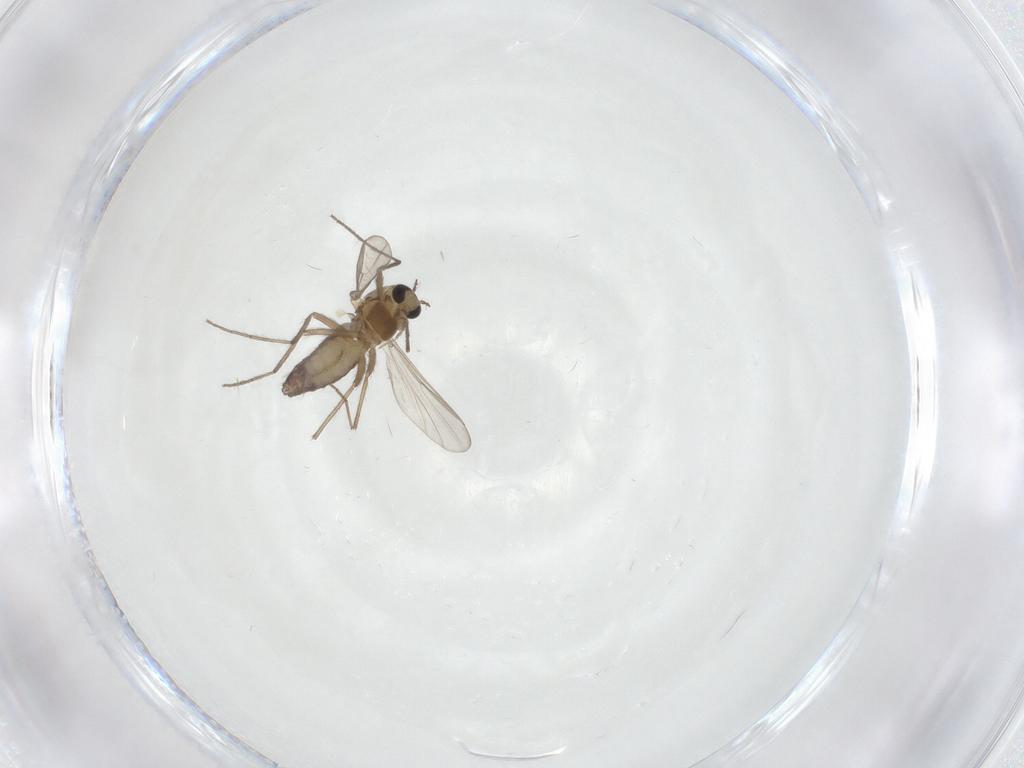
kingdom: Animalia
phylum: Arthropoda
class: Insecta
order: Diptera
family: Chironomidae
